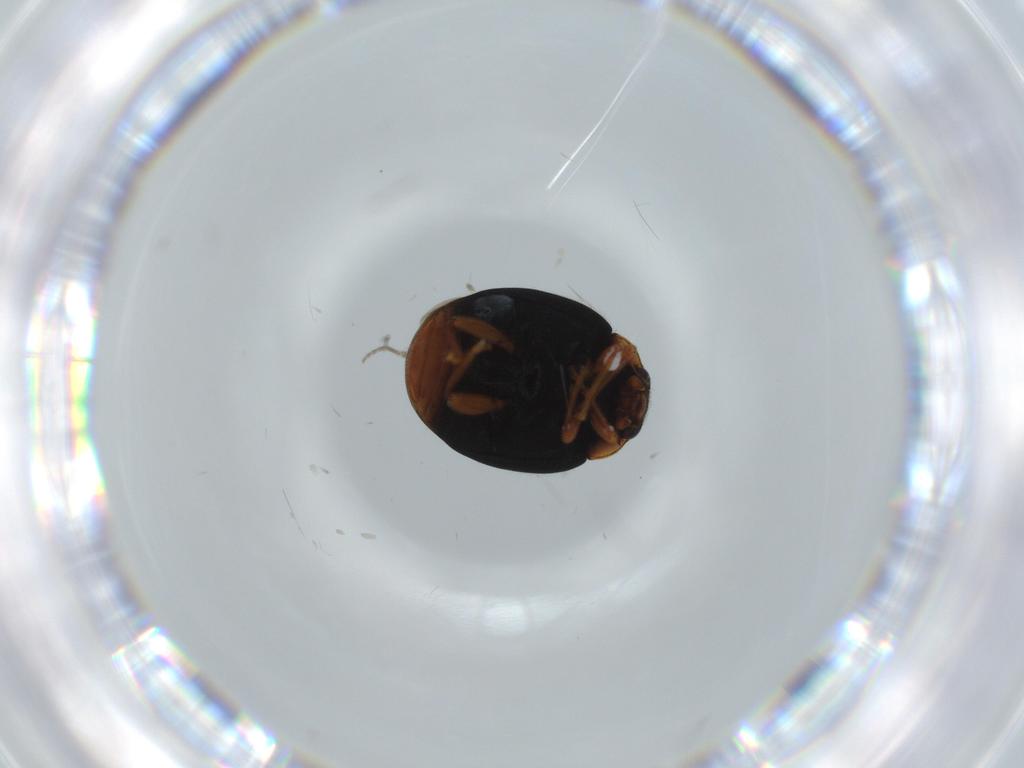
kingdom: Animalia
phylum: Arthropoda
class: Insecta
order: Coleoptera
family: Coccinellidae
